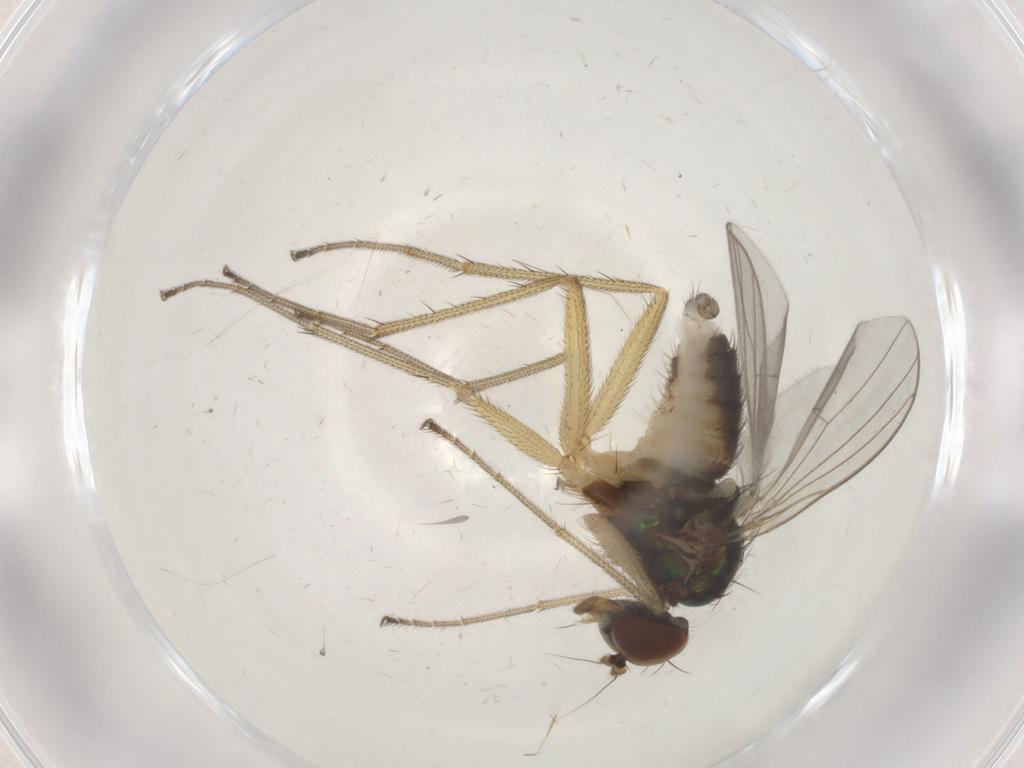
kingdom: Animalia
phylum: Arthropoda
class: Insecta
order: Diptera
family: Dolichopodidae
